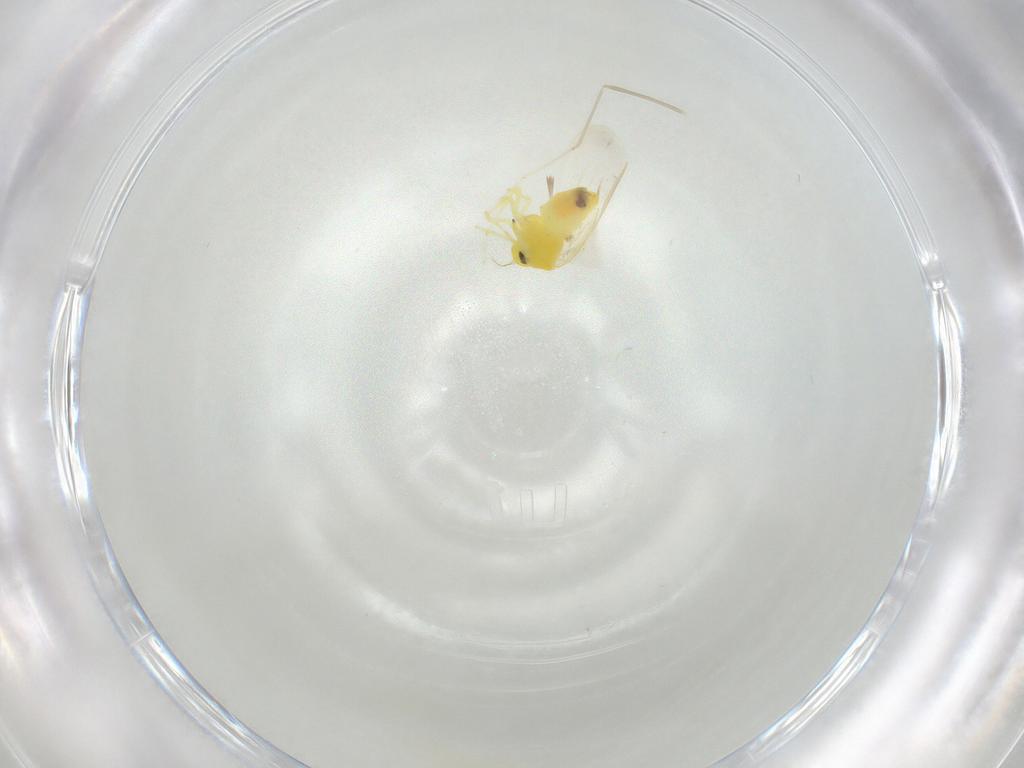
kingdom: Animalia
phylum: Arthropoda
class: Insecta
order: Hemiptera
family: Aleyrodidae
